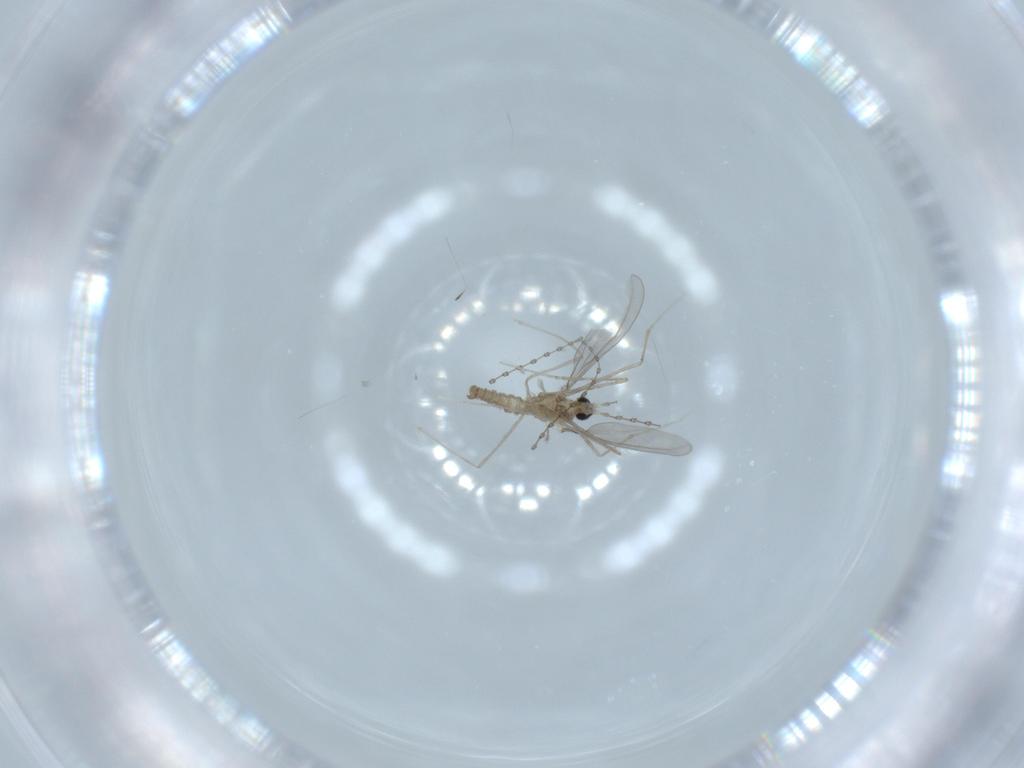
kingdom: Animalia
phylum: Arthropoda
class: Insecta
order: Diptera
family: Cecidomyiidae
